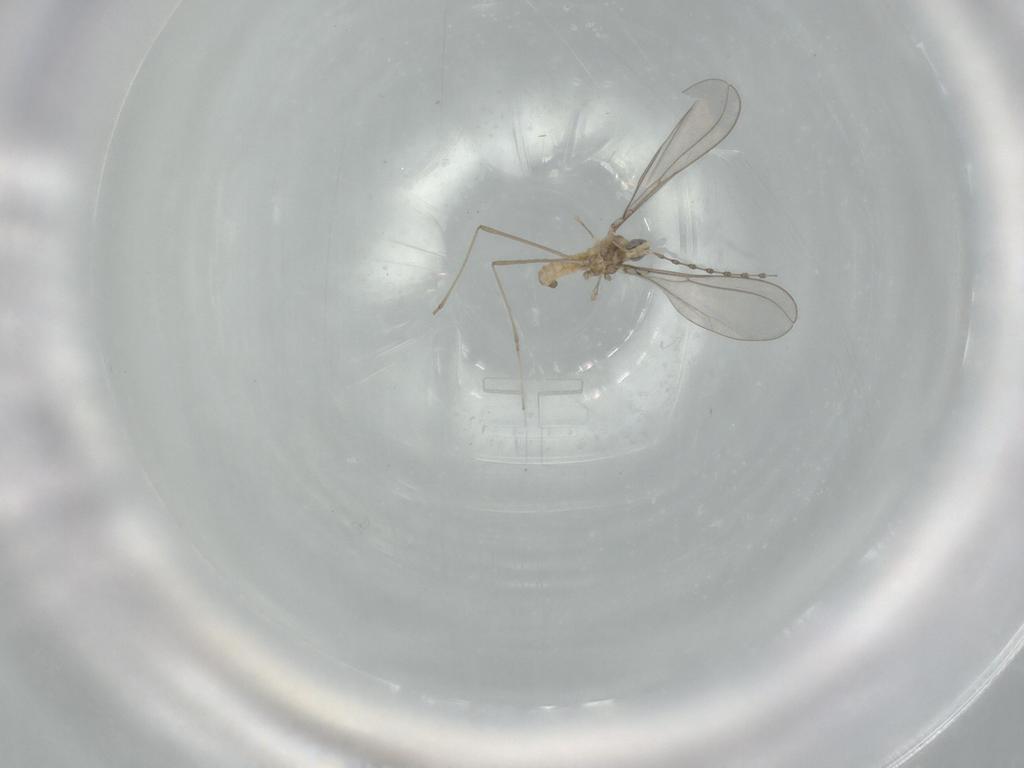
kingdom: Animalia
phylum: Arthropoda
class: Insecta
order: Diptera
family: Cecidomyiidae
